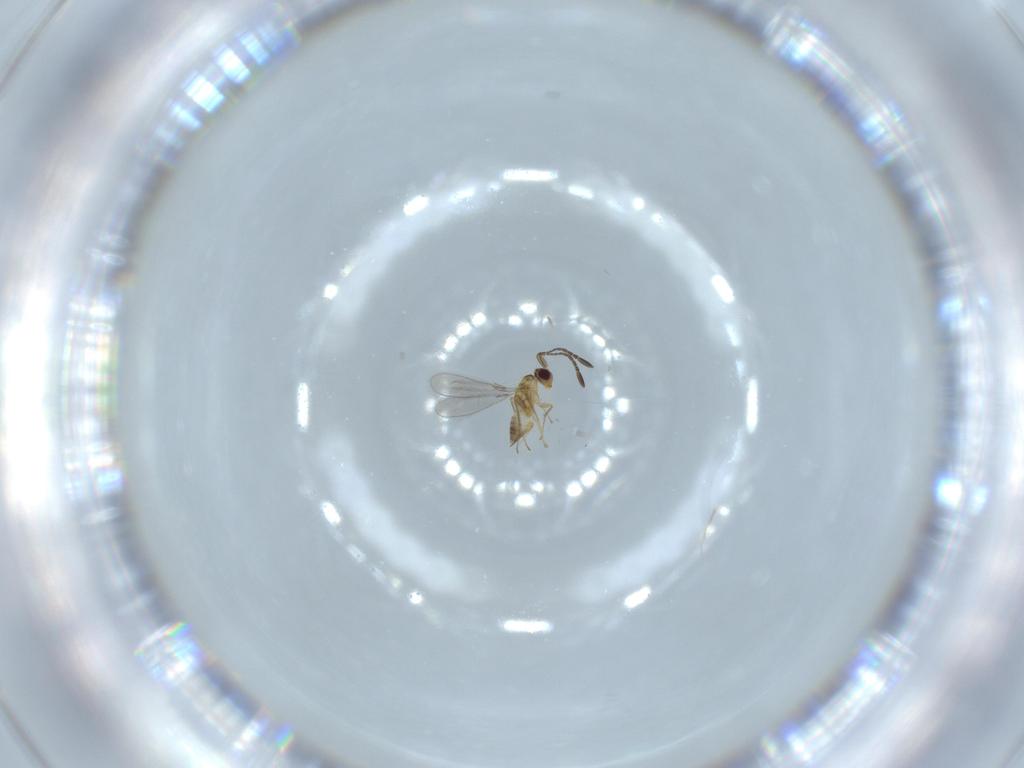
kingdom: Animalia
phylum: Arthropoda
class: Insecta
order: Hymenoptera
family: Mymaridae
